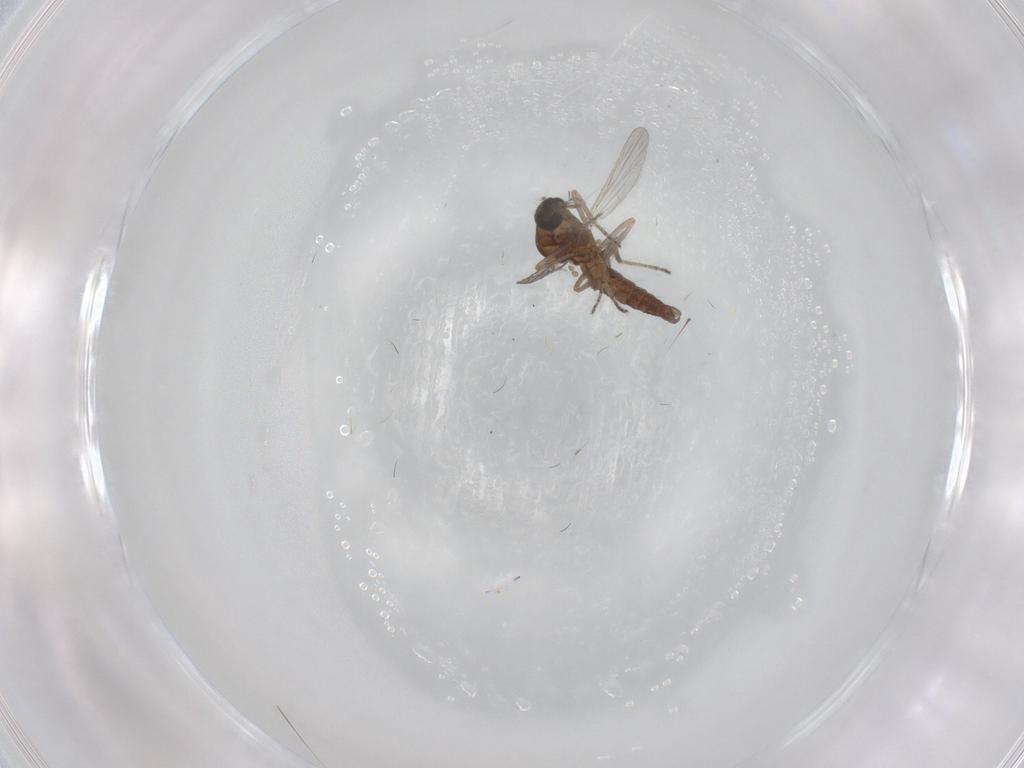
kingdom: Animalia
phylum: Arthropoda
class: Insecta
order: Diptera
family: Ceratopogonidae
